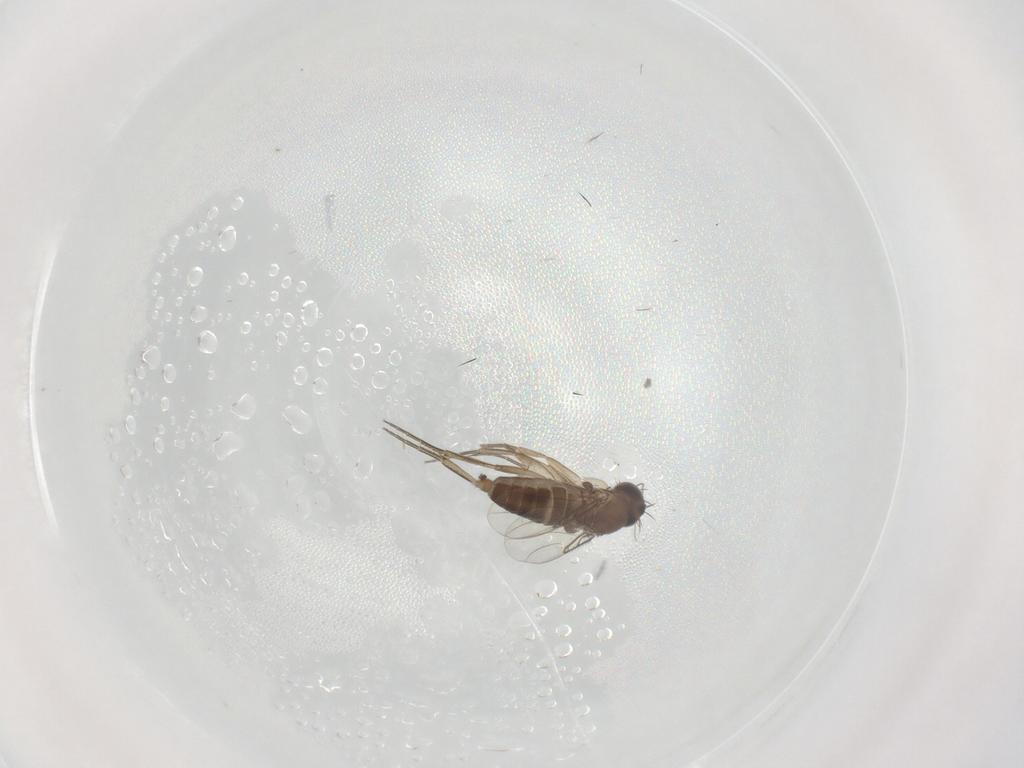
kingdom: Animalia
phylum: Arthropoda
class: Insecta
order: Diptera
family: Phoridae
